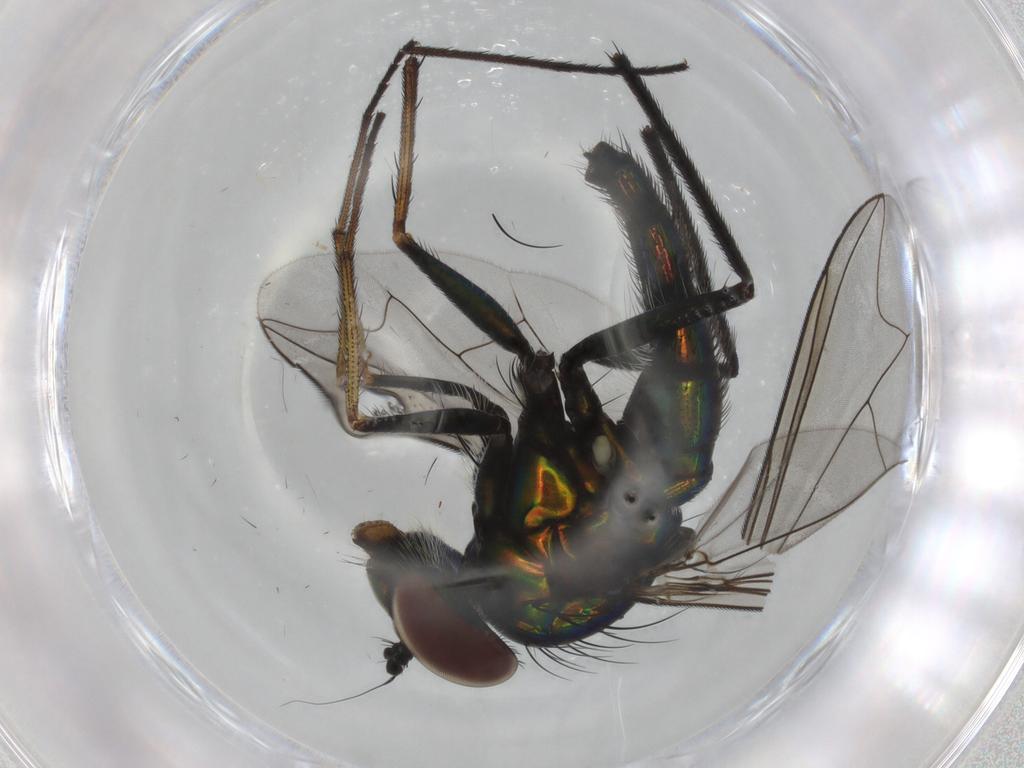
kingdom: Animalia
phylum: Arthropoda
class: Insecta
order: Diptera
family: Dolichopodidae
